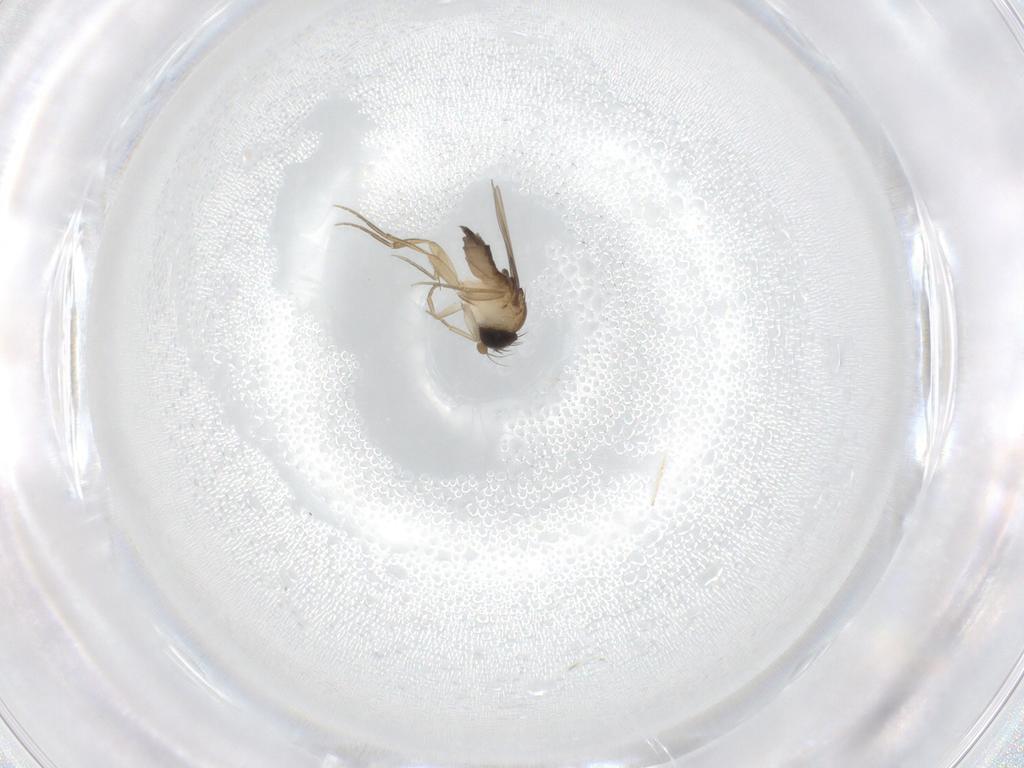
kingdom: Animalia
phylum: Arthropoda
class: Insecta
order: Diptera
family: Phoridae
